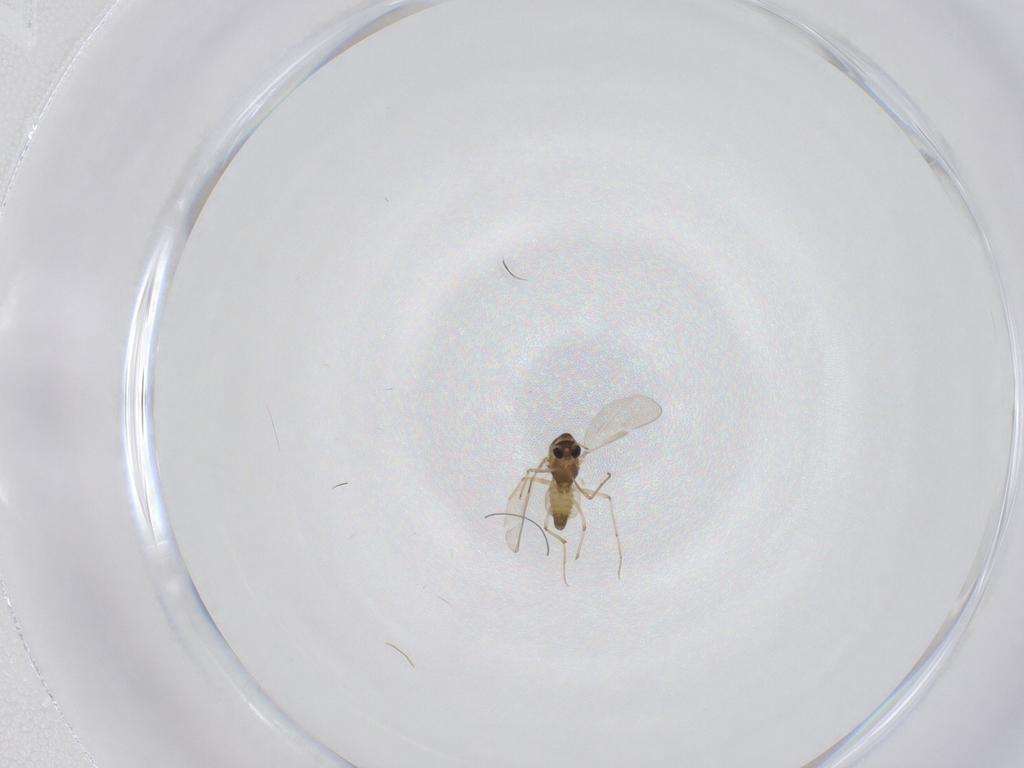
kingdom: Animalia
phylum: Arthropoda
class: Insecta
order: Diptera
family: Chironomidae
